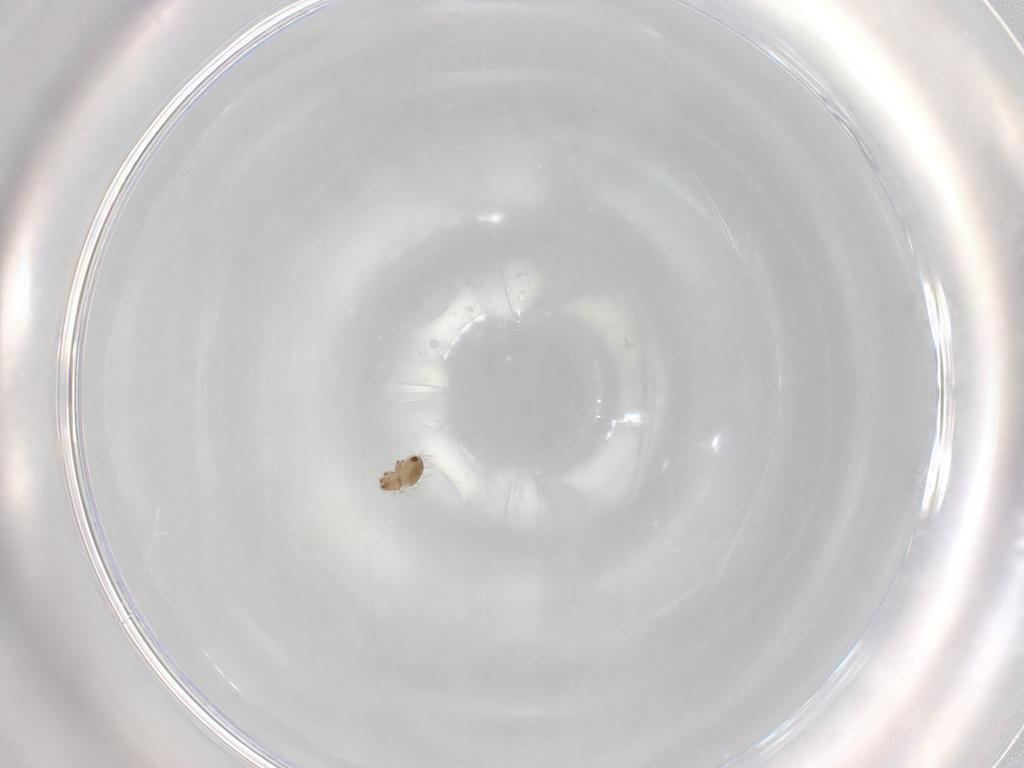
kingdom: Animalia
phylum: Arthropoda
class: Arachnida
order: Sarcoptiformes
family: Humerobatidae
